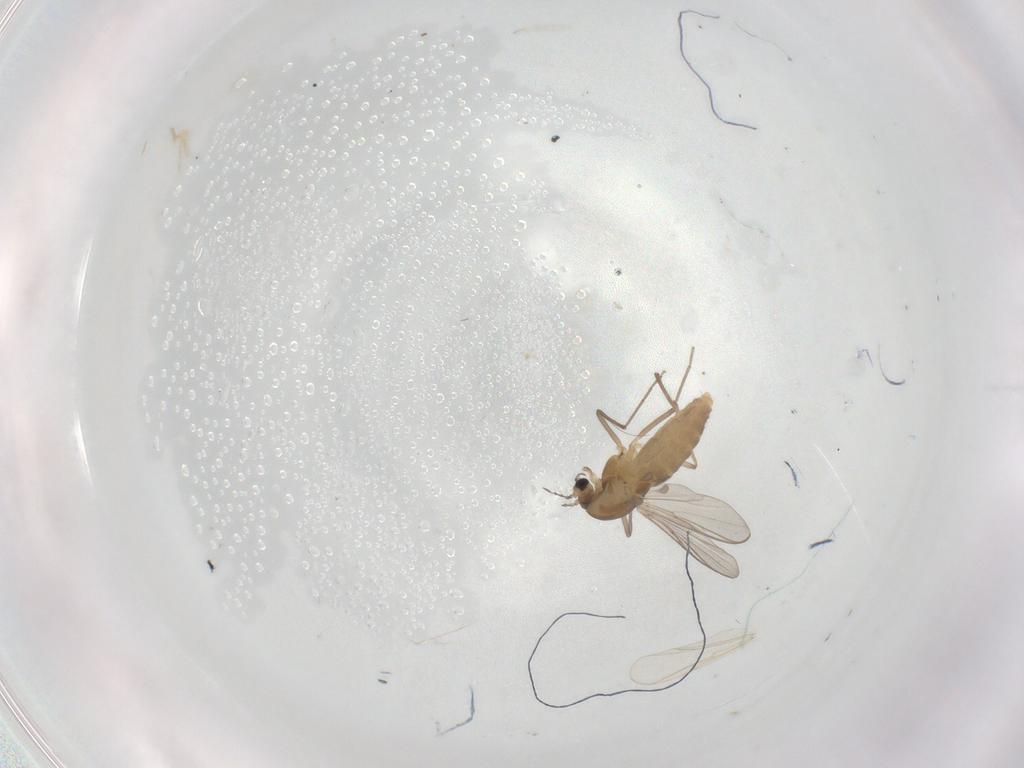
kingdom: Animalia
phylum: Arthropoda
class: Insecta
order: Diptera
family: Chironomidae
